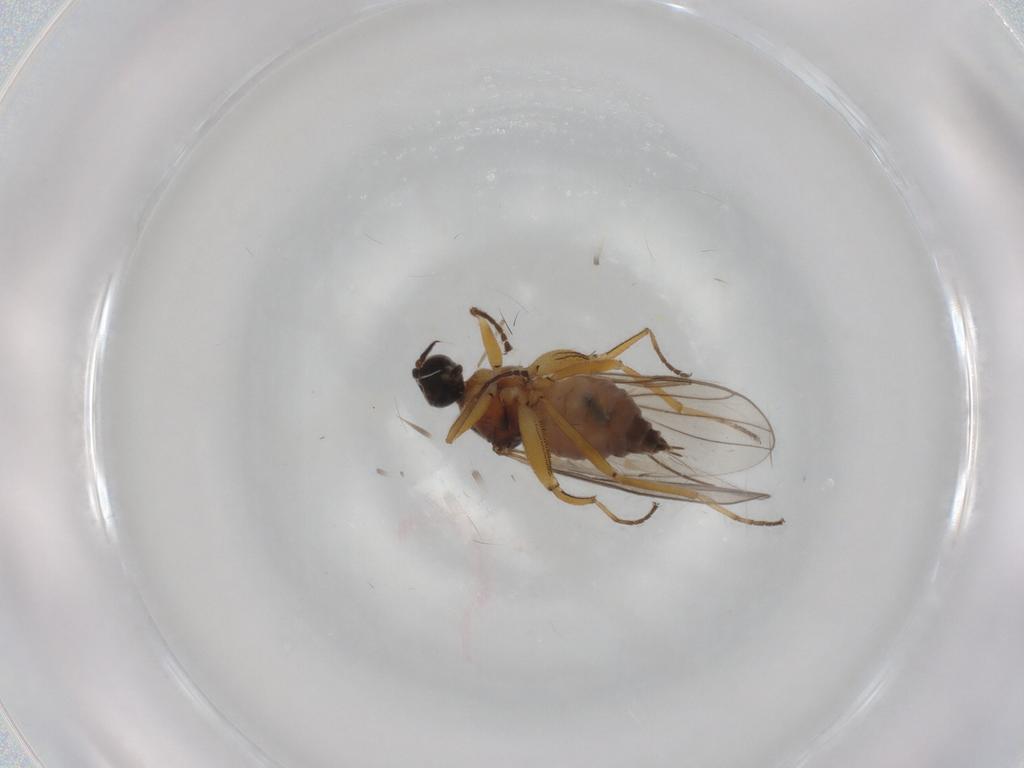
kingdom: Animalia
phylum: Arthropoda
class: Insecta
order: Diptera
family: Hybotidae
